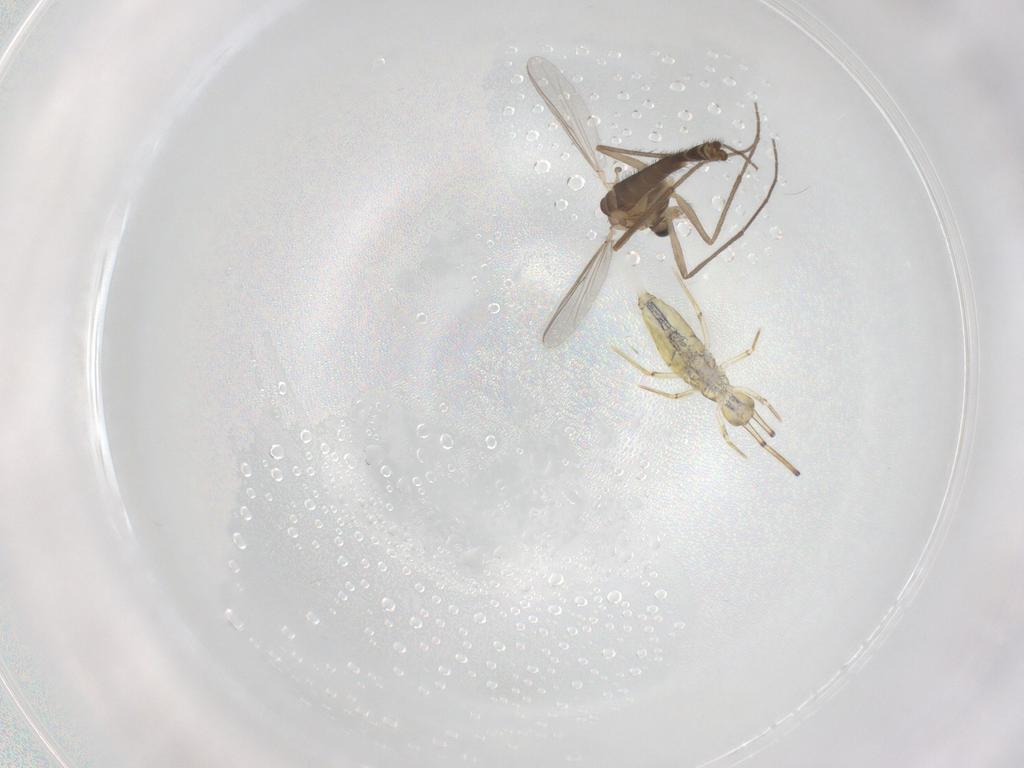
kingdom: Animalia
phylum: Arthropoda
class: Insecta
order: Diptera
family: Chironomidae
